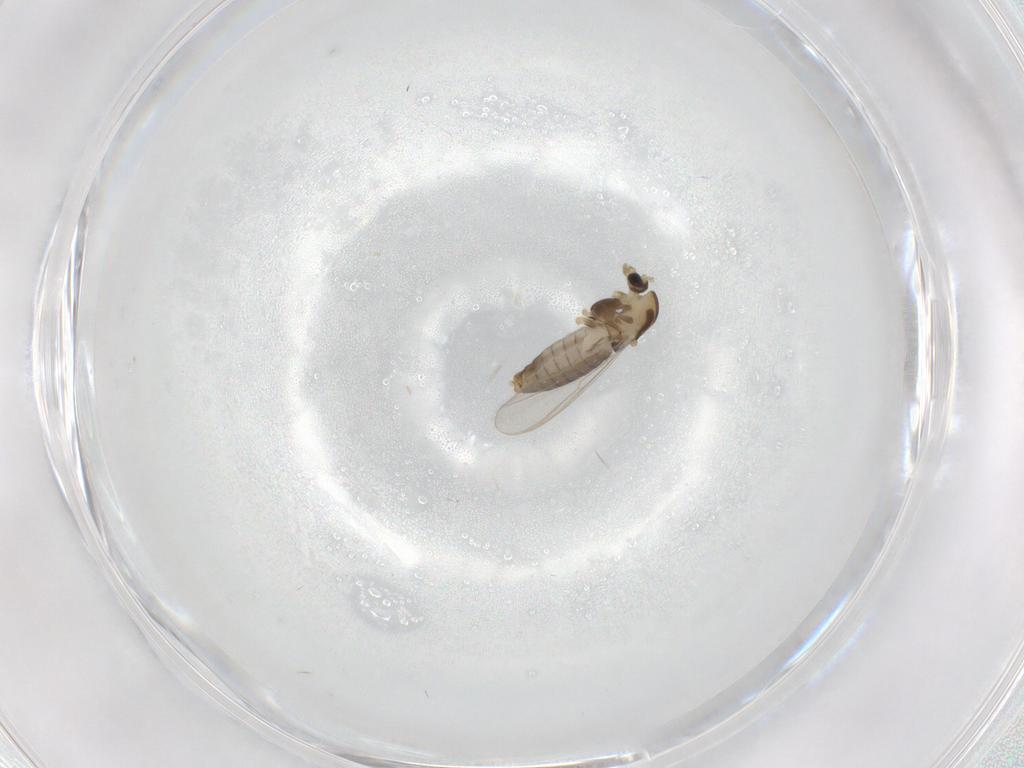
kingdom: Animalia
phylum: Arthropoda
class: Insecta
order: Diptera
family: Chironomidae
